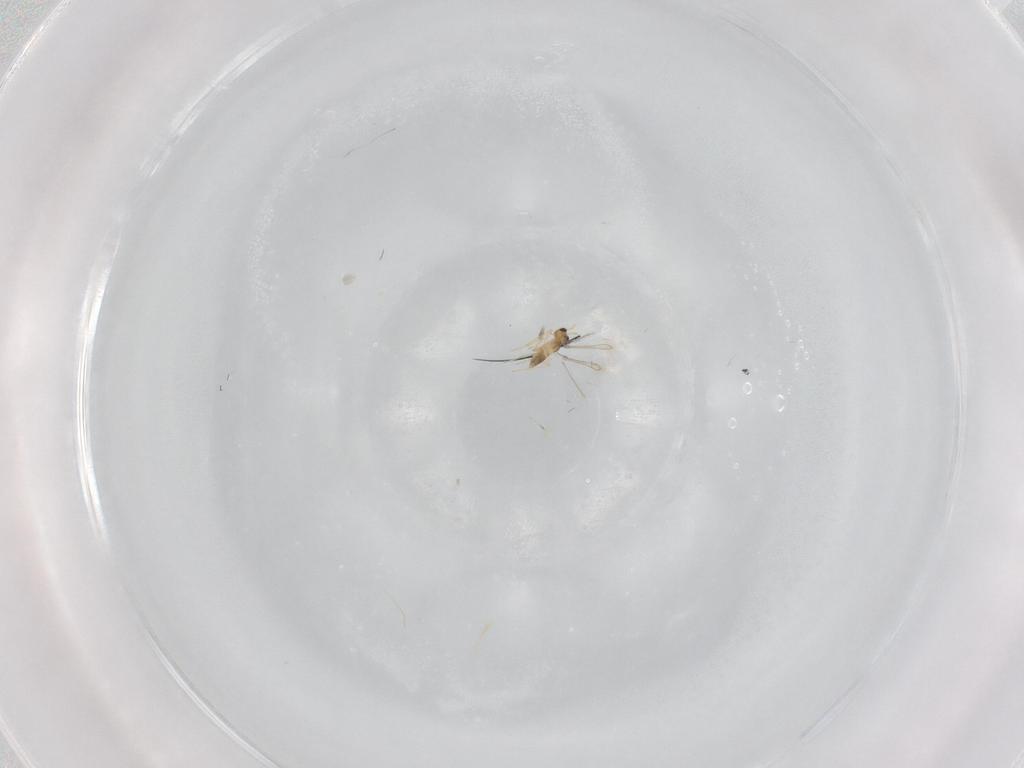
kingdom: Animalia
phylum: Arthropoda
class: Insecta
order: Hymenoptera
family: Mymaridae
